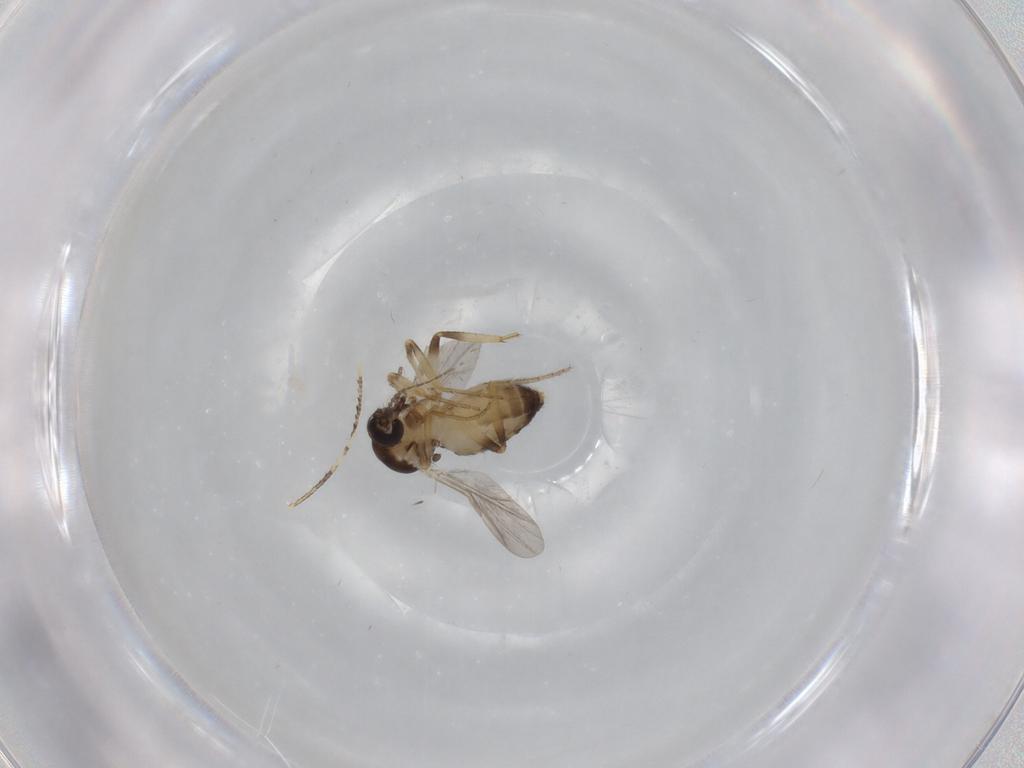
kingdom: Animalia
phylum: Arthropoda
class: Insecta
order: Diptera
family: Ceratopogonidae
